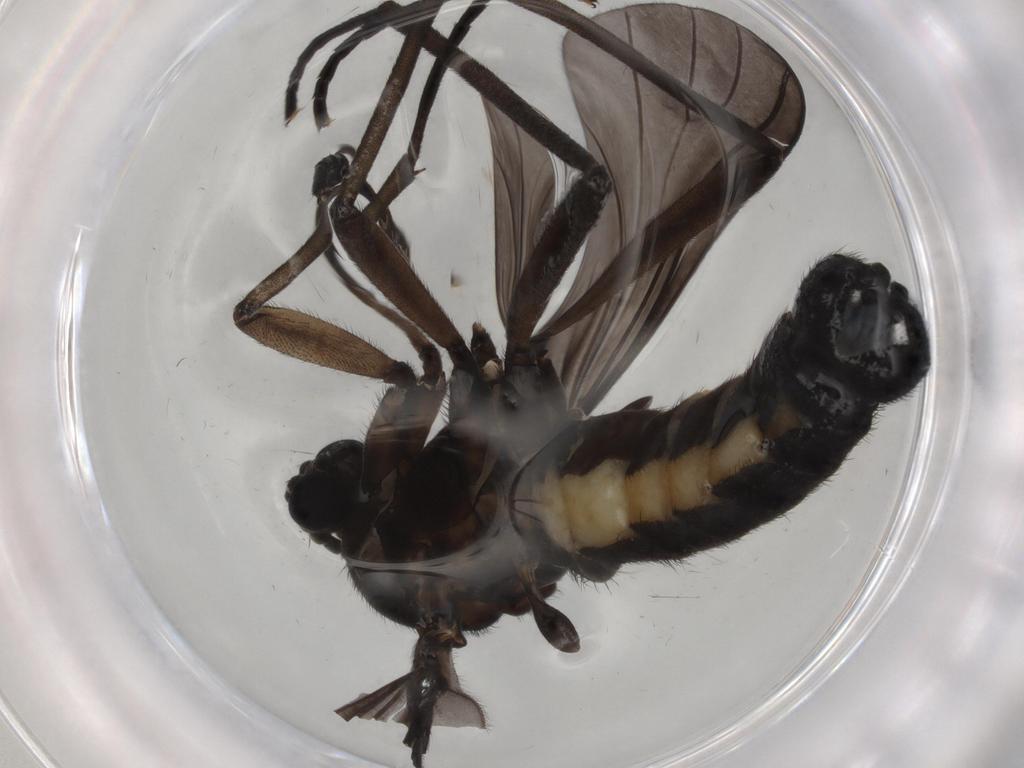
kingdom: Animalia
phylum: Arthropoda
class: Insecta
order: Diptera
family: Sciaridae
